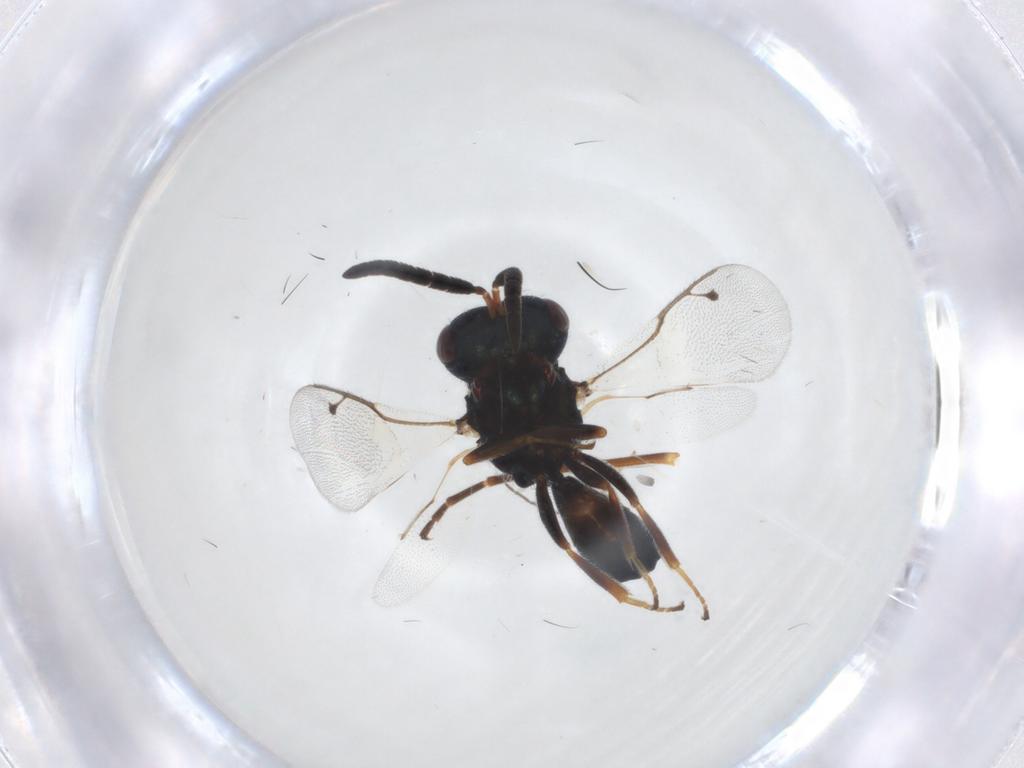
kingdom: Animalia
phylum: Arthropoda
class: Insecta
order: Hymenoptera
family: Pteromalidae
